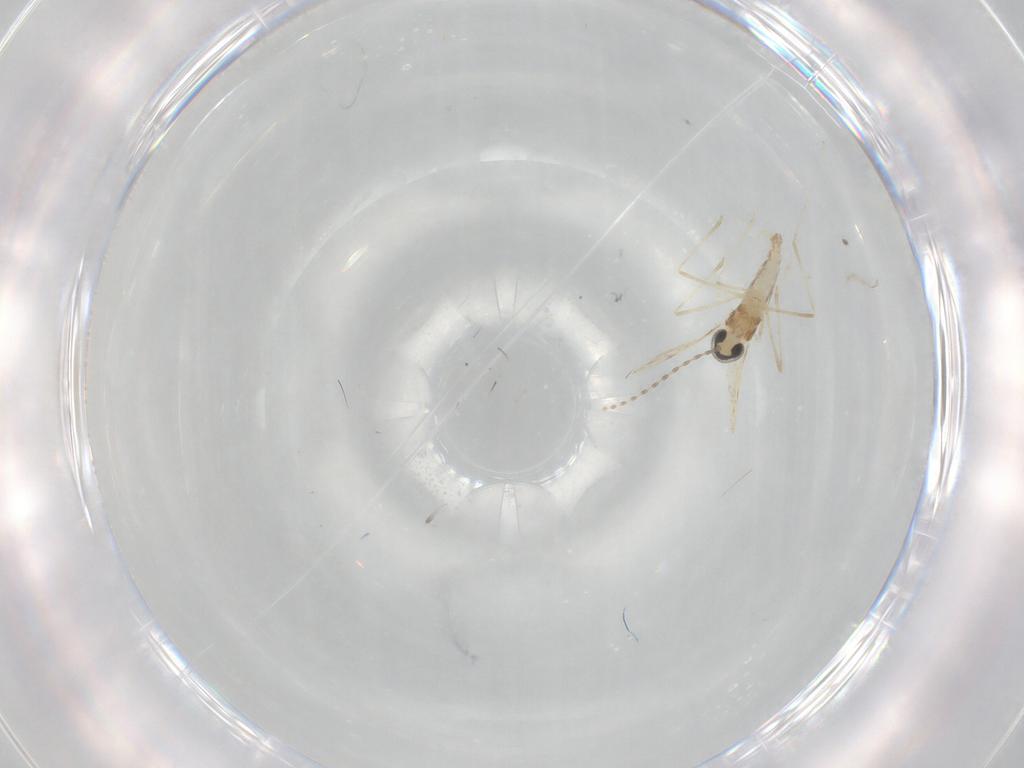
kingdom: Animalia
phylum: Arthropoda
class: Insecta
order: Diptera
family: Cecidomyiidae
